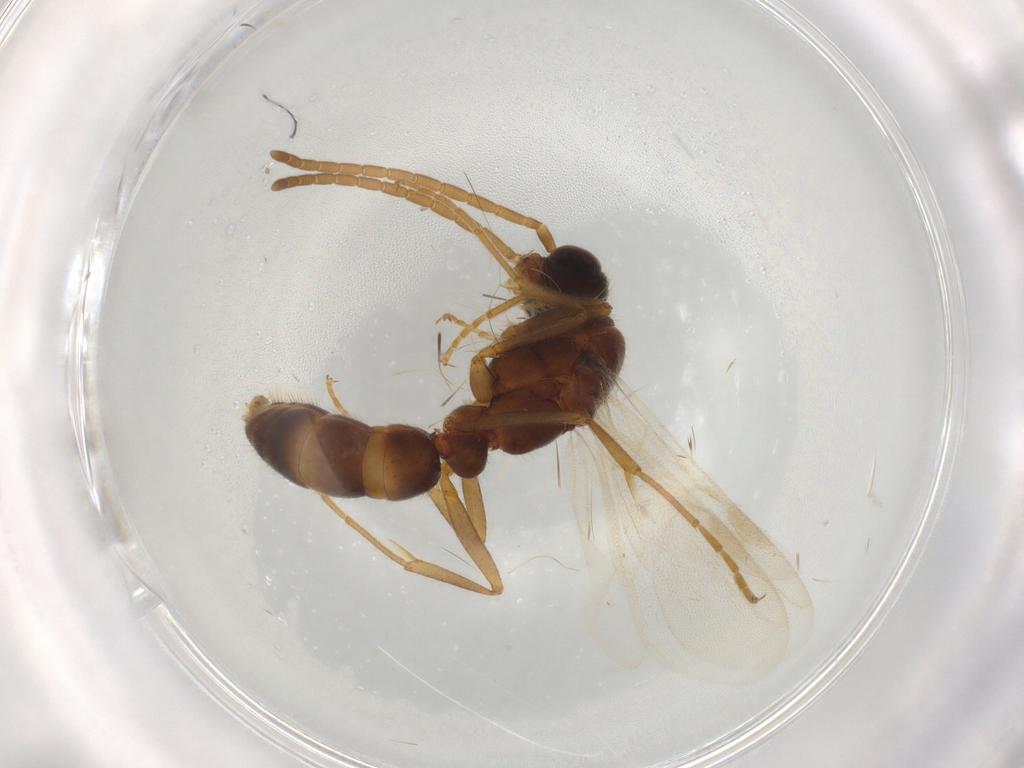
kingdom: Animalia
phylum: Arthropoda
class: Insecta
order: Hymenoptera
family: Formicidae
